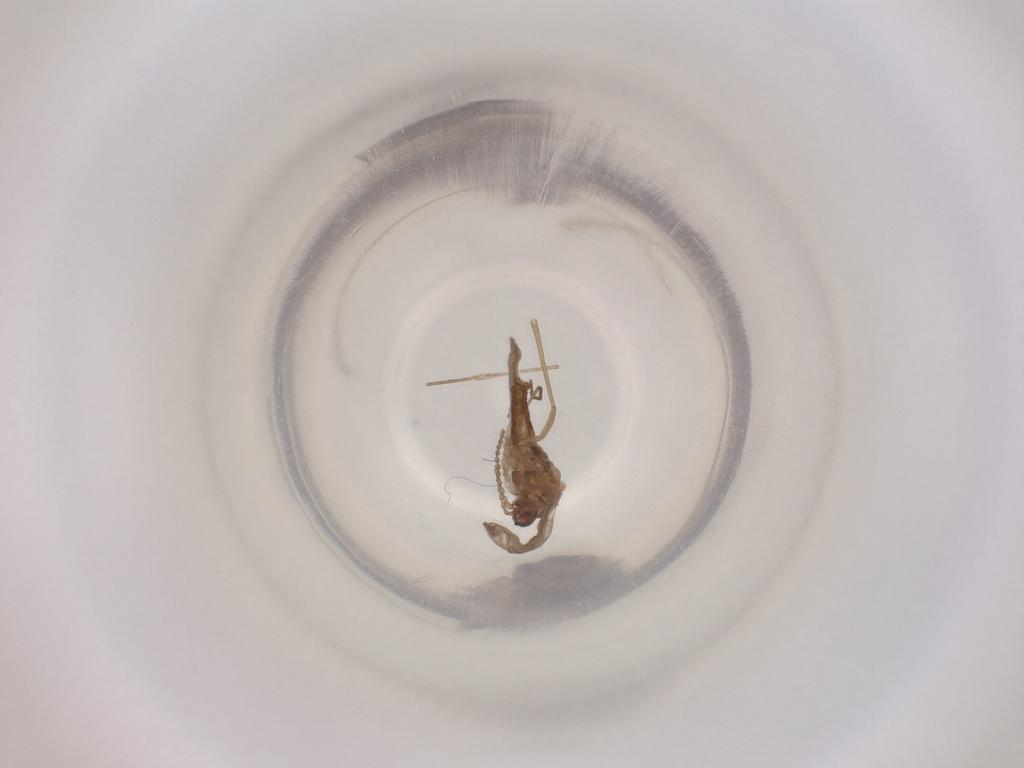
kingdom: Animalia
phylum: Arthropoda
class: Insecta
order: Diptera
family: Cecidomyiidae
